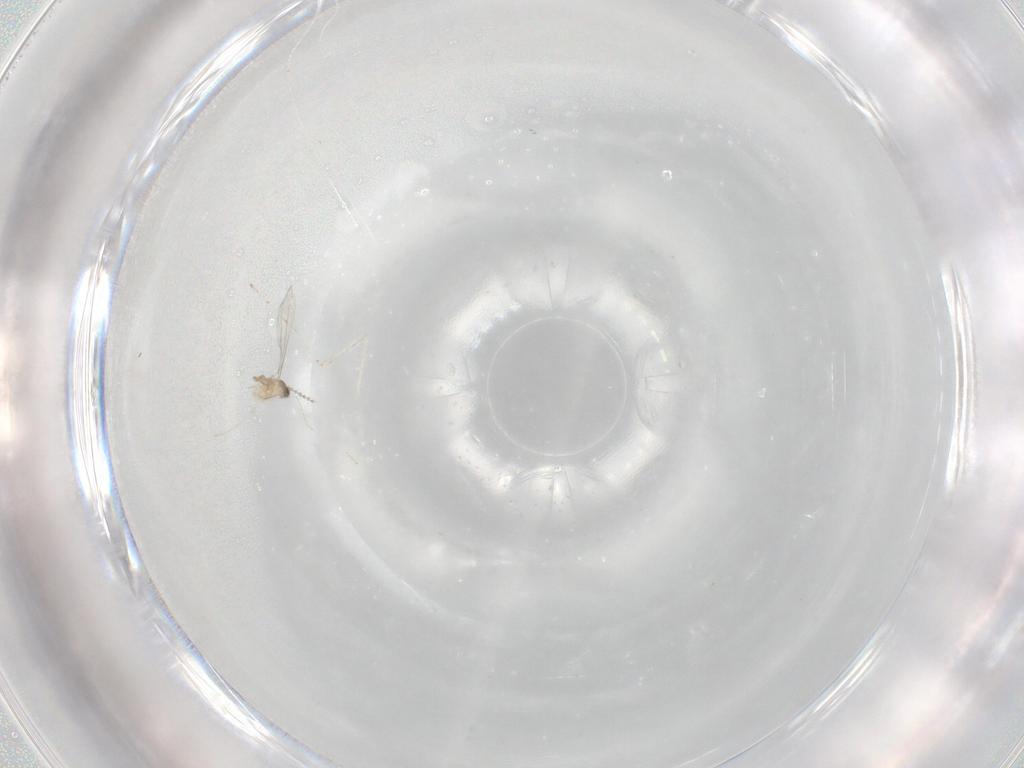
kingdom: Animalia
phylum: Arthropoda
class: Insecta
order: Diptera
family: Cecidomyiidae
